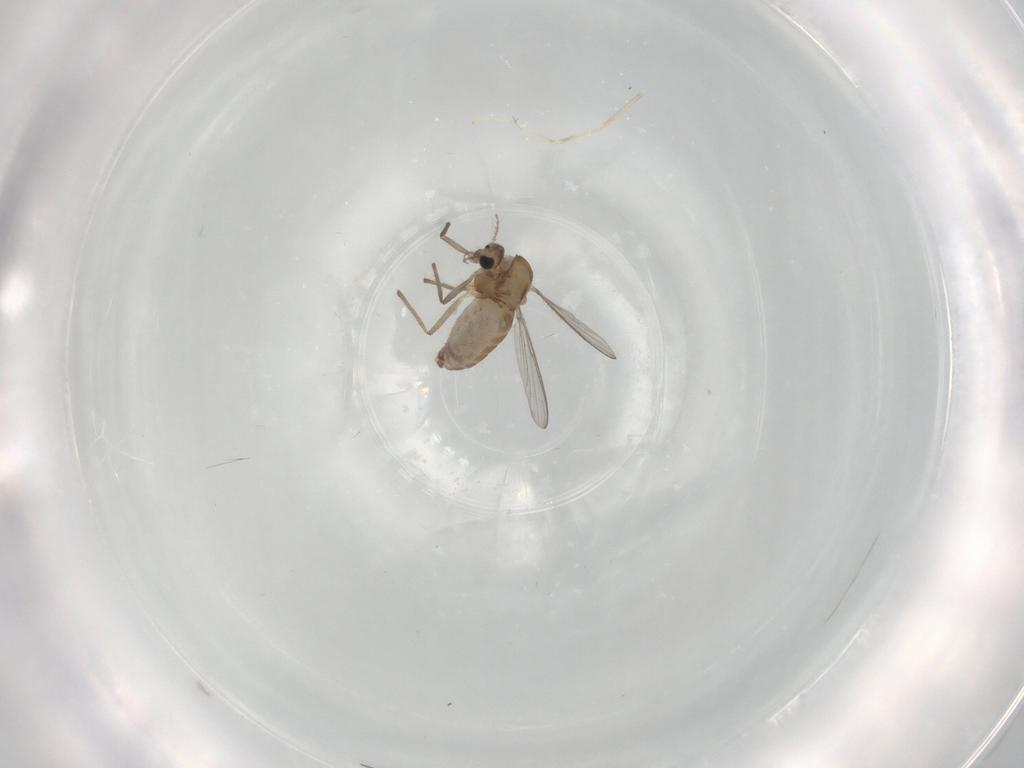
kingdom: Animalia
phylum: Arthropoda
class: Insecta
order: Diptera
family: Chironomidae
